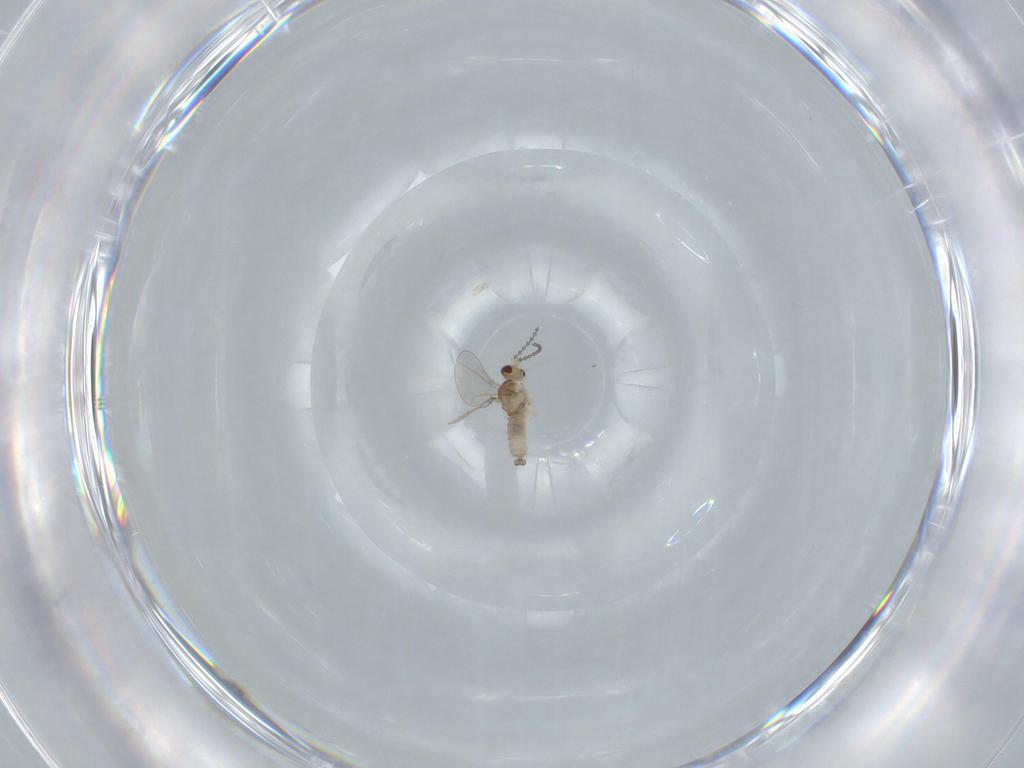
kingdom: Animalia
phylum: Arthropoda
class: Insecta
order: Diptera
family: Cecidomyiidae
